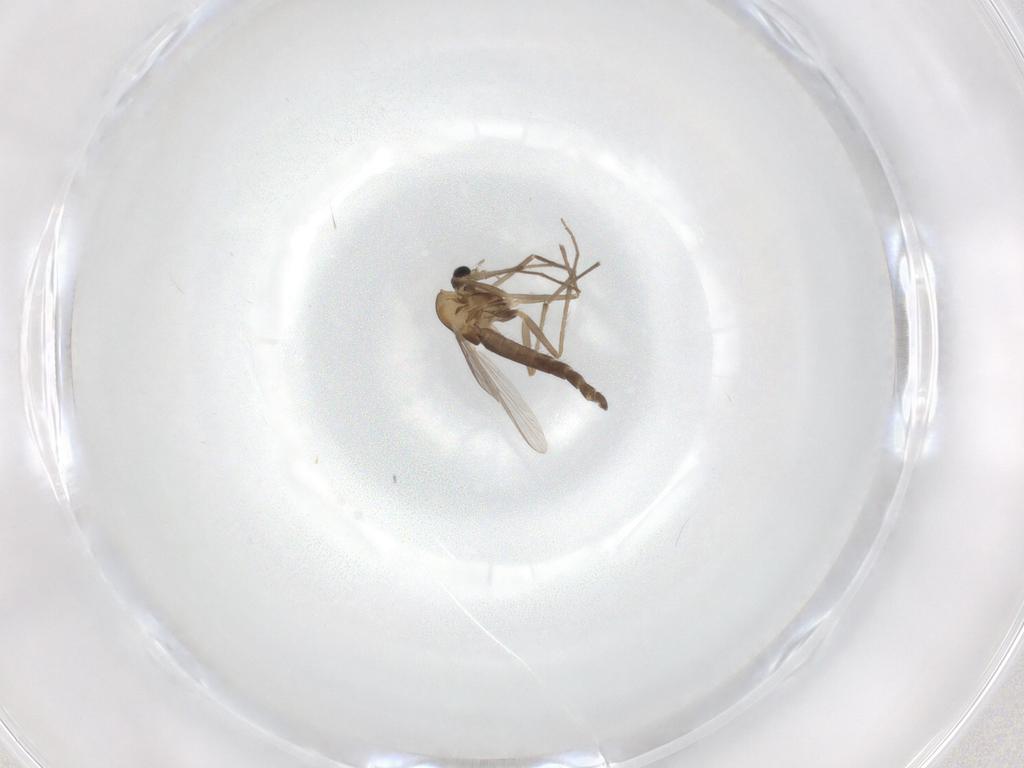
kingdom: Animalia
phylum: Arthropoda
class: Insecta
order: Diptera
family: Chironomidae
